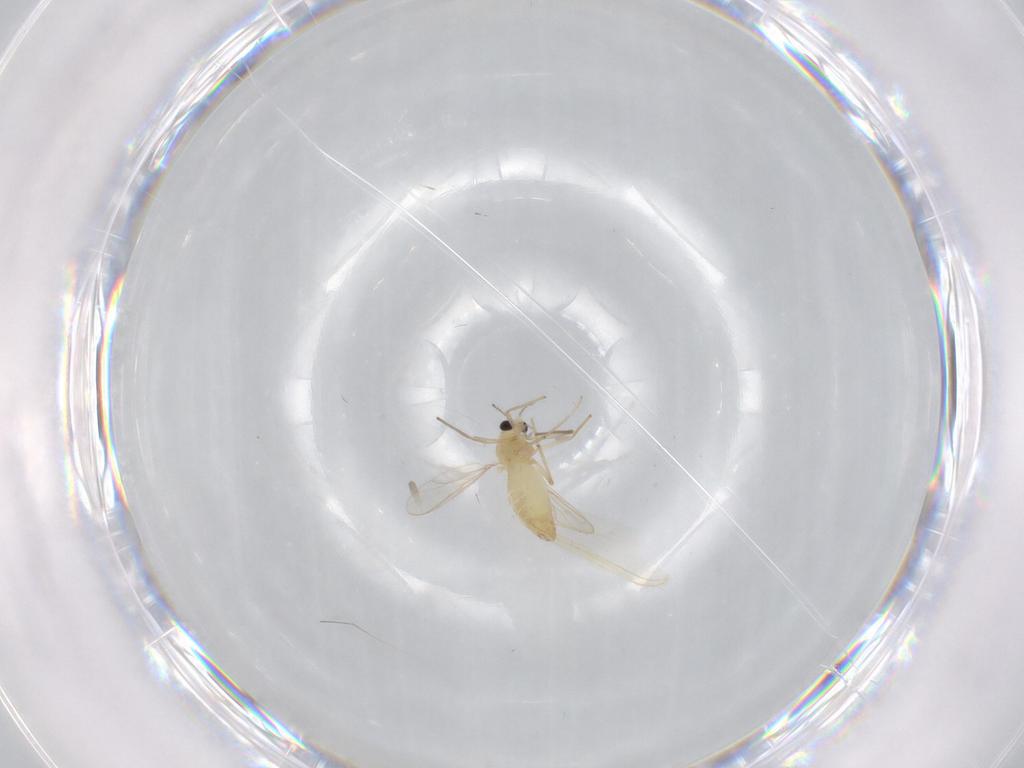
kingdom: Animalia
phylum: Arthropoda
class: Insecta
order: Diptera
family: Chironomidae
